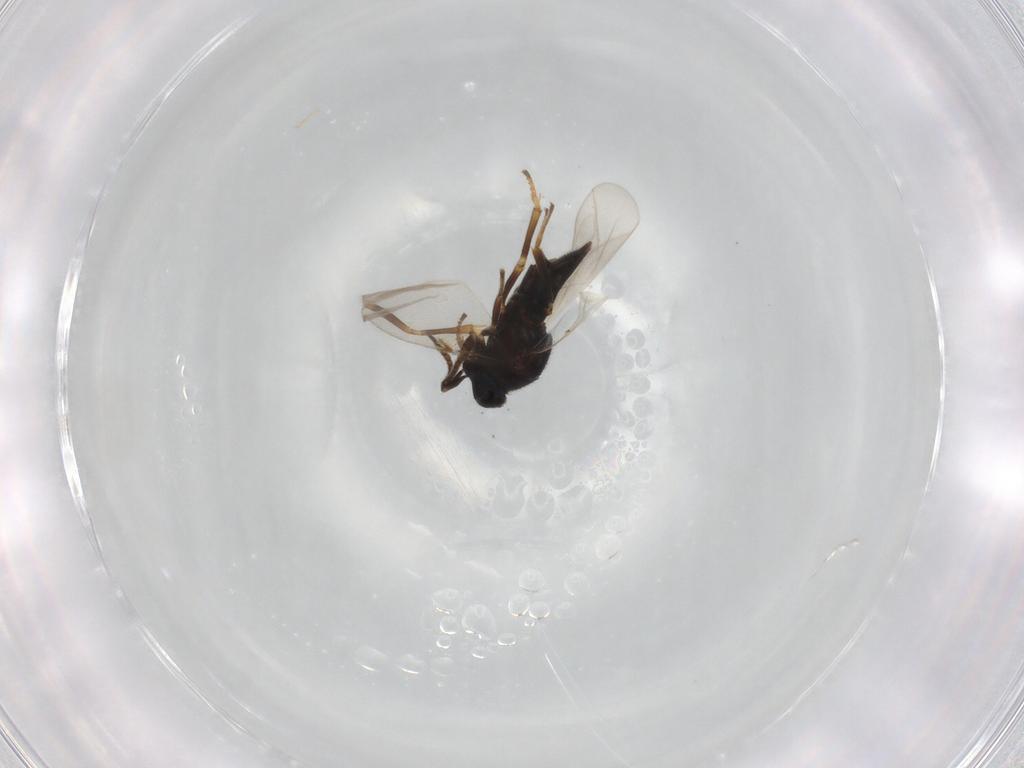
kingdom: Animalia
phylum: Arthropoda
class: Insecta
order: Hymenoptera
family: Encyrtidae
